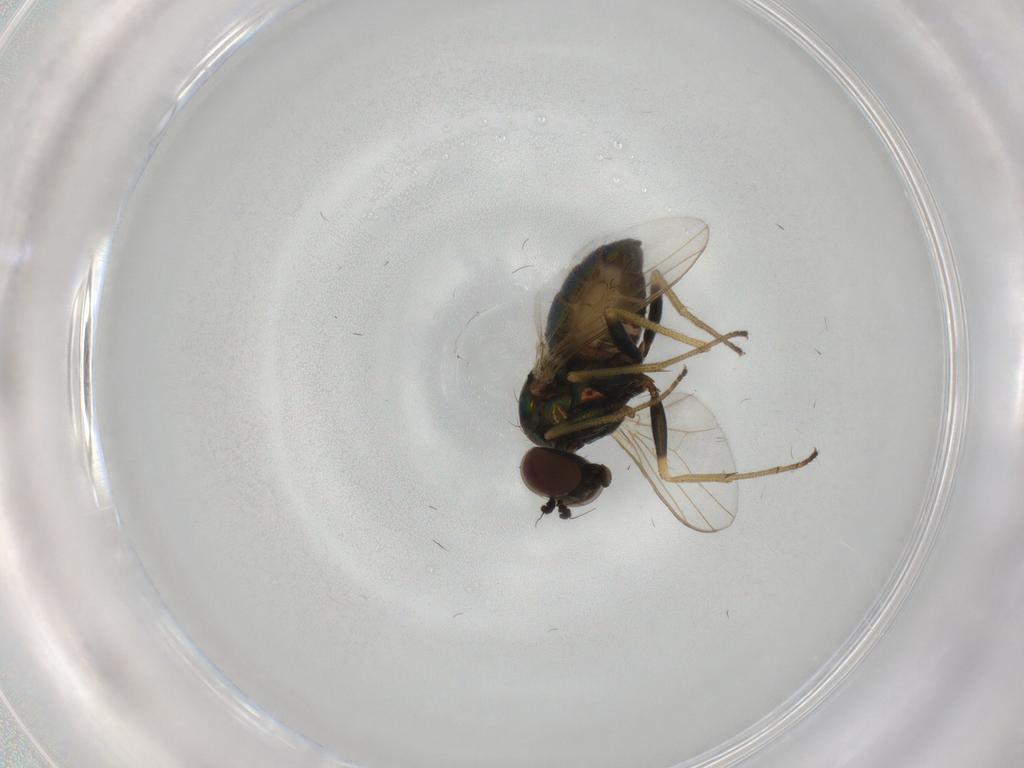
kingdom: Animalia
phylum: Arthropoda
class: Insecta
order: Diptera
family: Dolichopodidae
